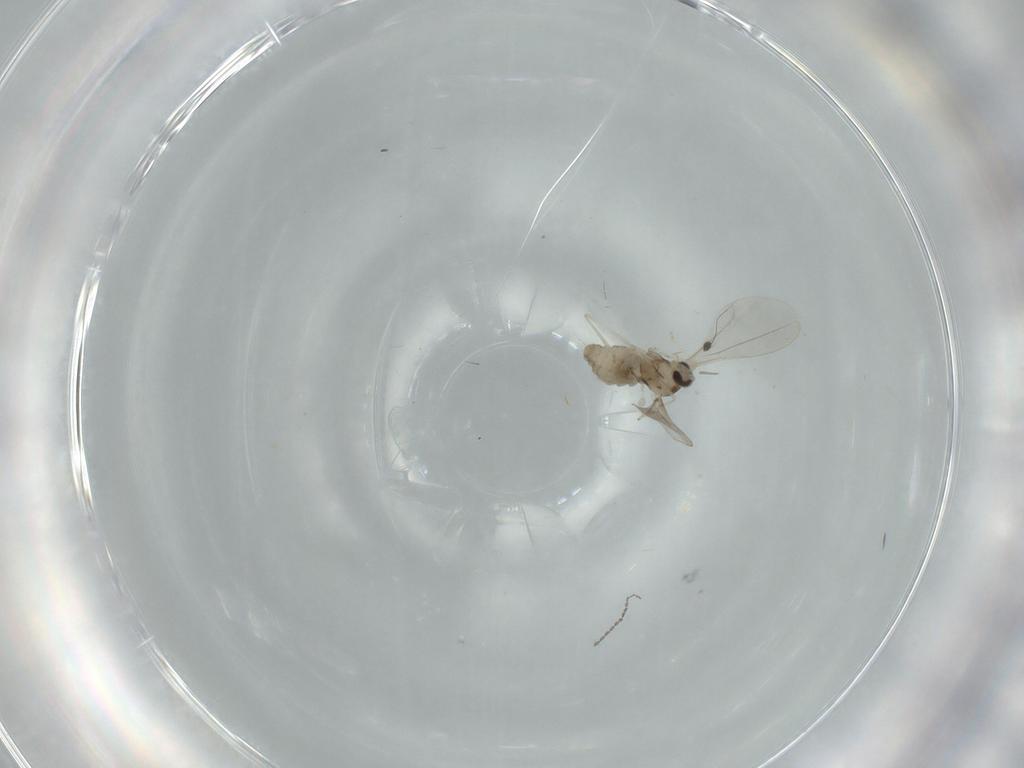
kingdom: Animalia
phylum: Arthropoda
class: Insecta
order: Diptera
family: Cecidomyiidae
